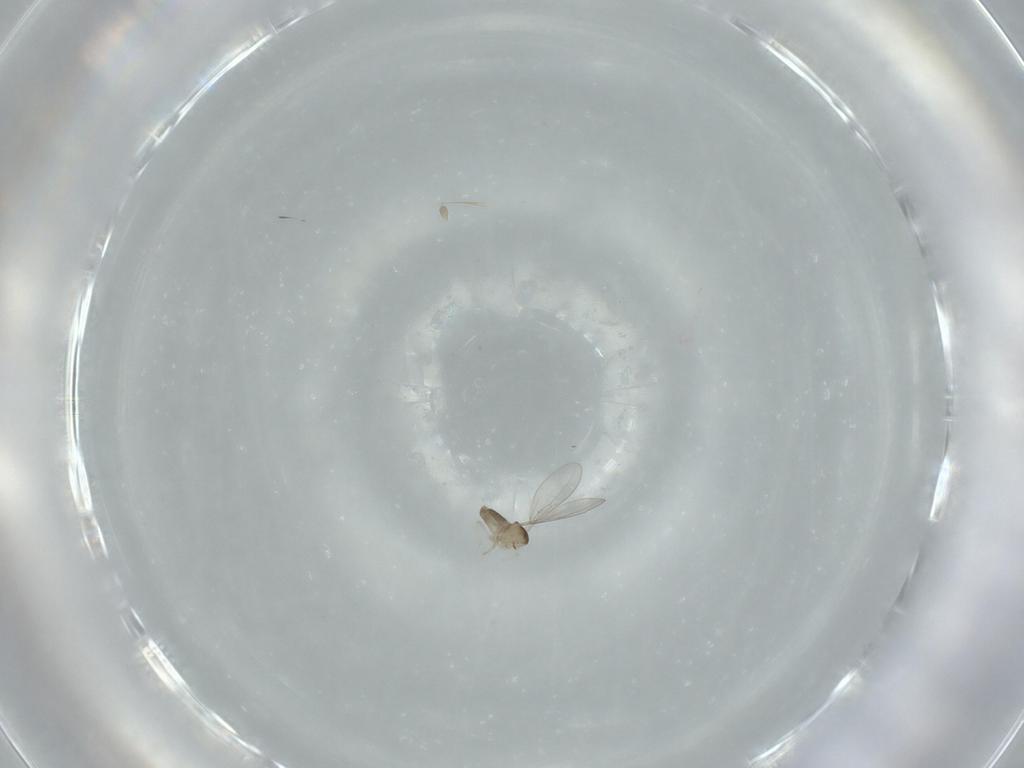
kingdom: Animalia
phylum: Arthropoda
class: Insecta
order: Diptera
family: Cecidomyiidae
